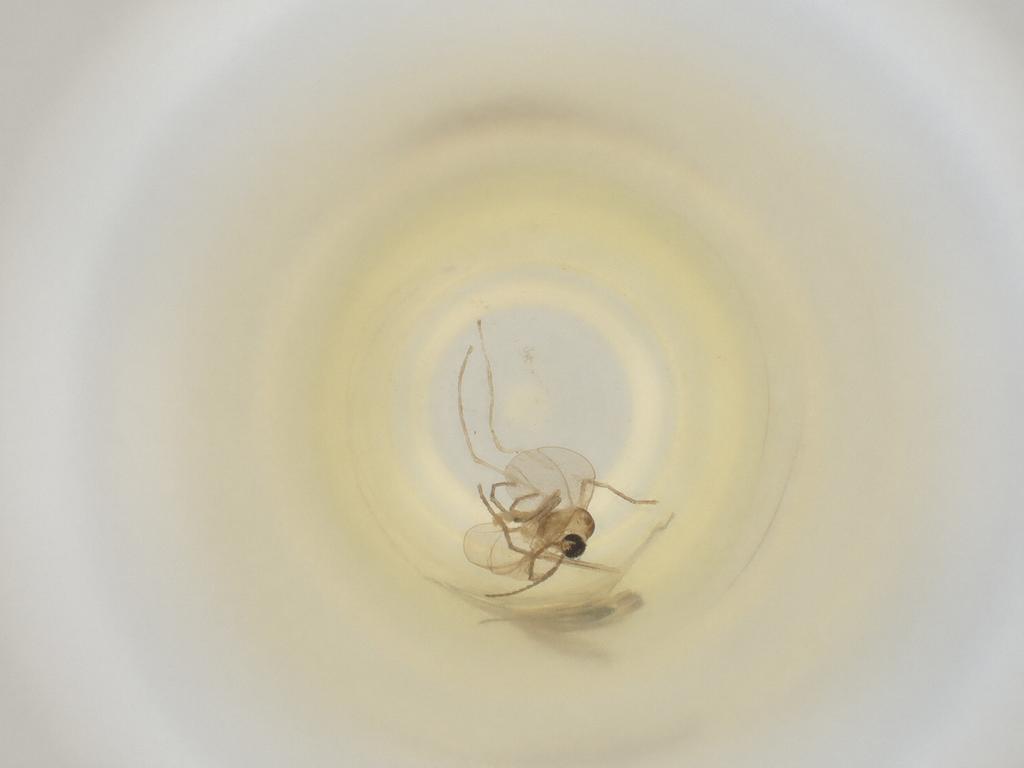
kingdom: Animalia
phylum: Arthropoda
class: Insecta
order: Diptera
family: Cecidomyiidae
